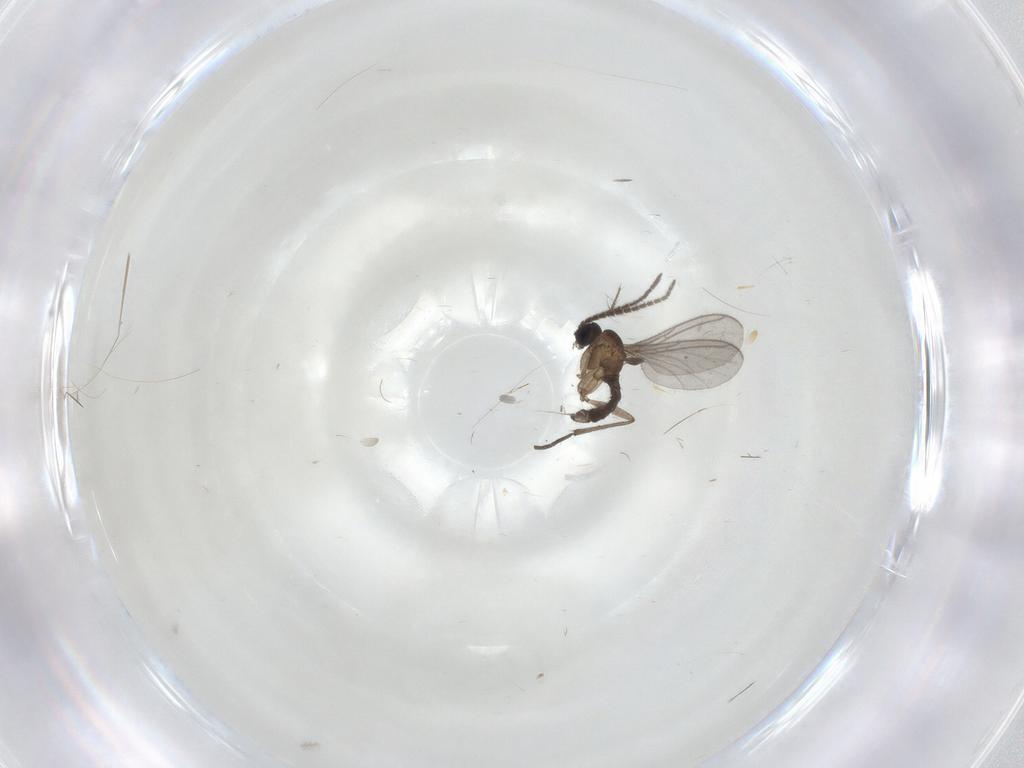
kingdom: Animalia
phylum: Arthropoda
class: Insecta
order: Diptera
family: Sciaridae
